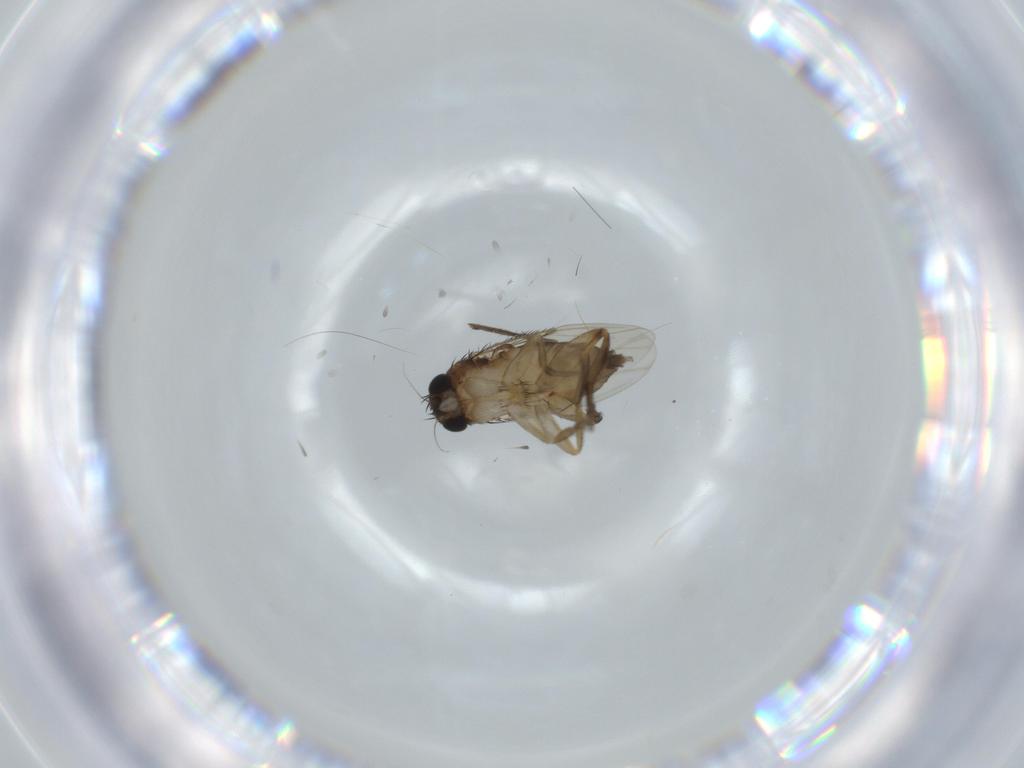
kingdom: Animalia
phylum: Arthropoda
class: Insecta
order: Diptera
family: Phoridae
